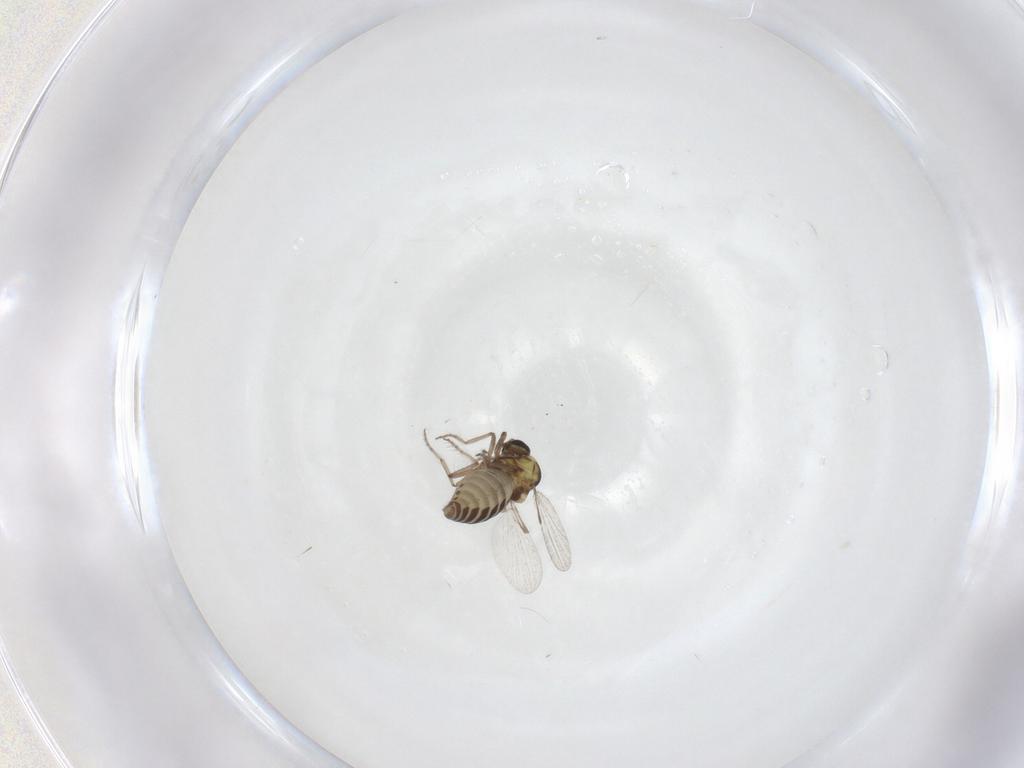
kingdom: Animalia
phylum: Arthropoda
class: Insecta
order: Diptera
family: Ceratopogonidae
